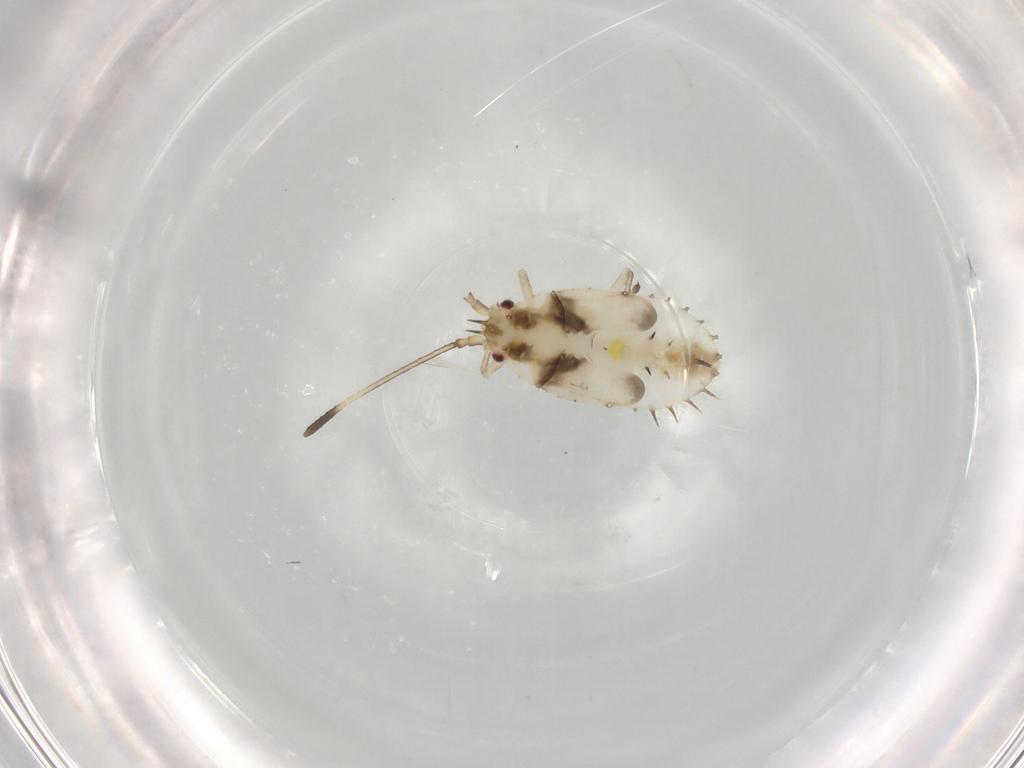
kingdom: Animalia
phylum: Arthropoda
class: Insecta
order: Hemiptera
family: Tingidae
